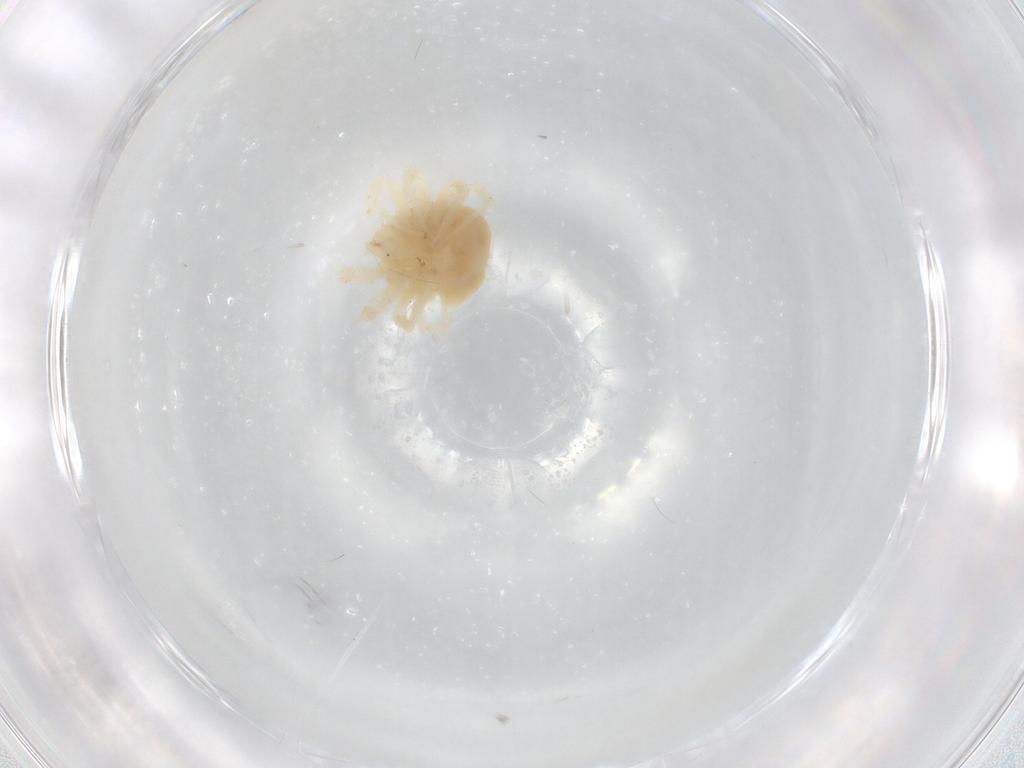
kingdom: Animalia
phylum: Arthropoda
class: Arachnida
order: Trombidiformes
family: Anystidae
